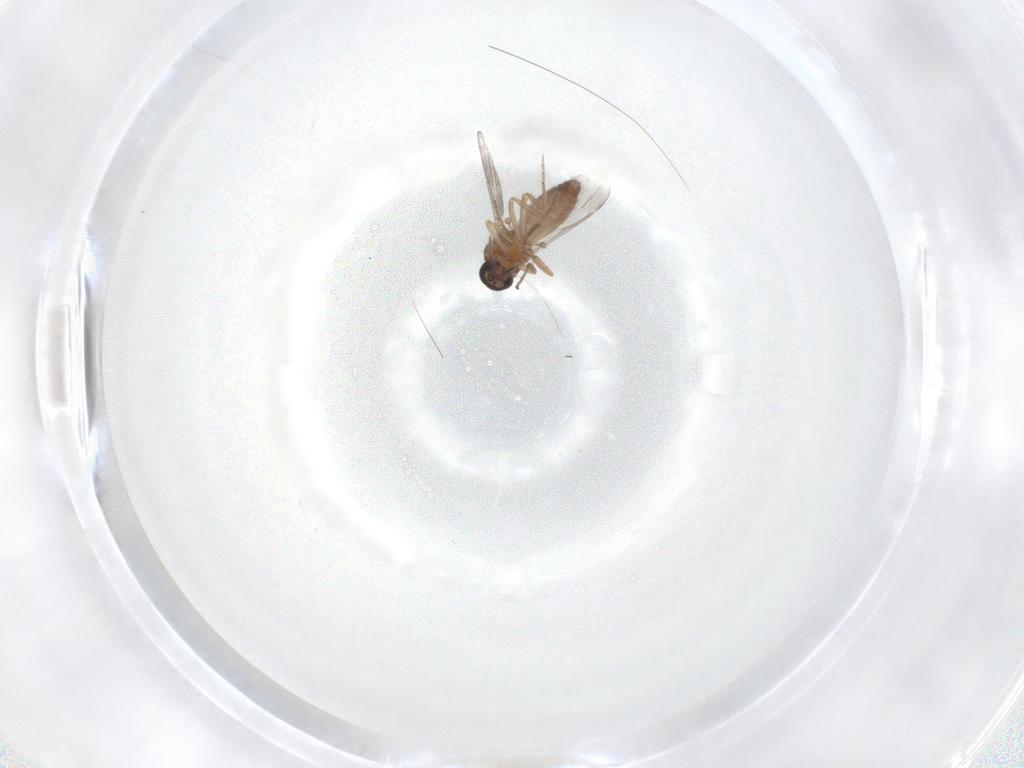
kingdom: Animalia
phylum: Arthropoda
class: Insecta
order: Diptera
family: Ceratopogonidae
